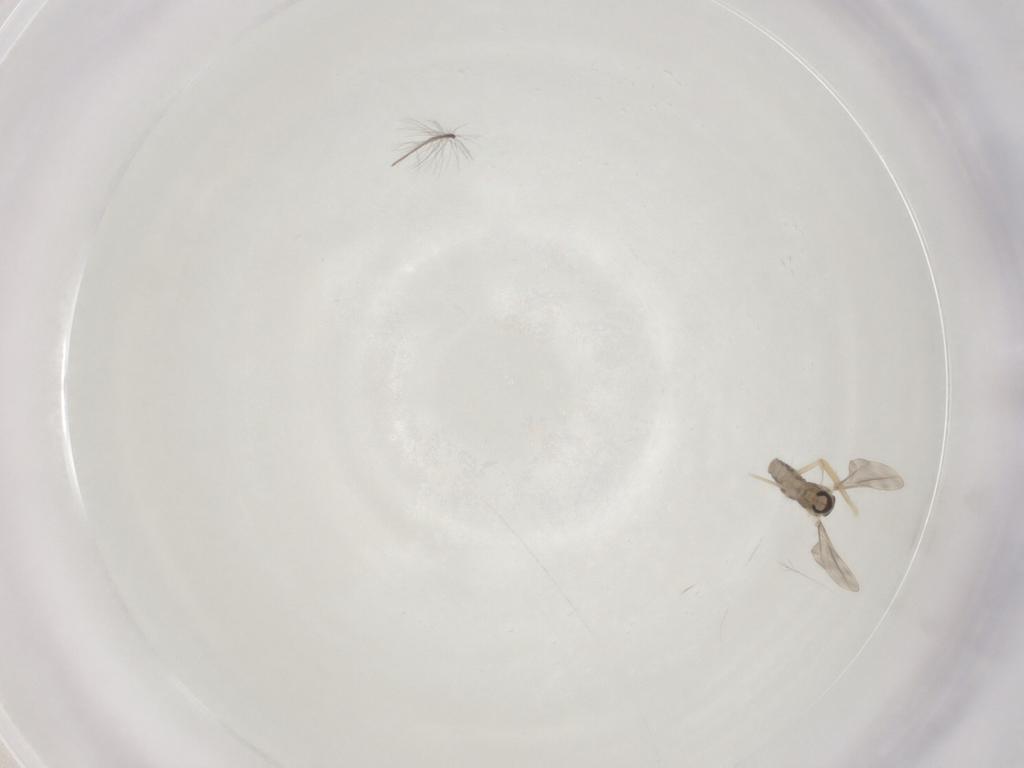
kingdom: Animalia
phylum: Arthropoda
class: Insecta
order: Diptera
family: Cecidomyiidae
